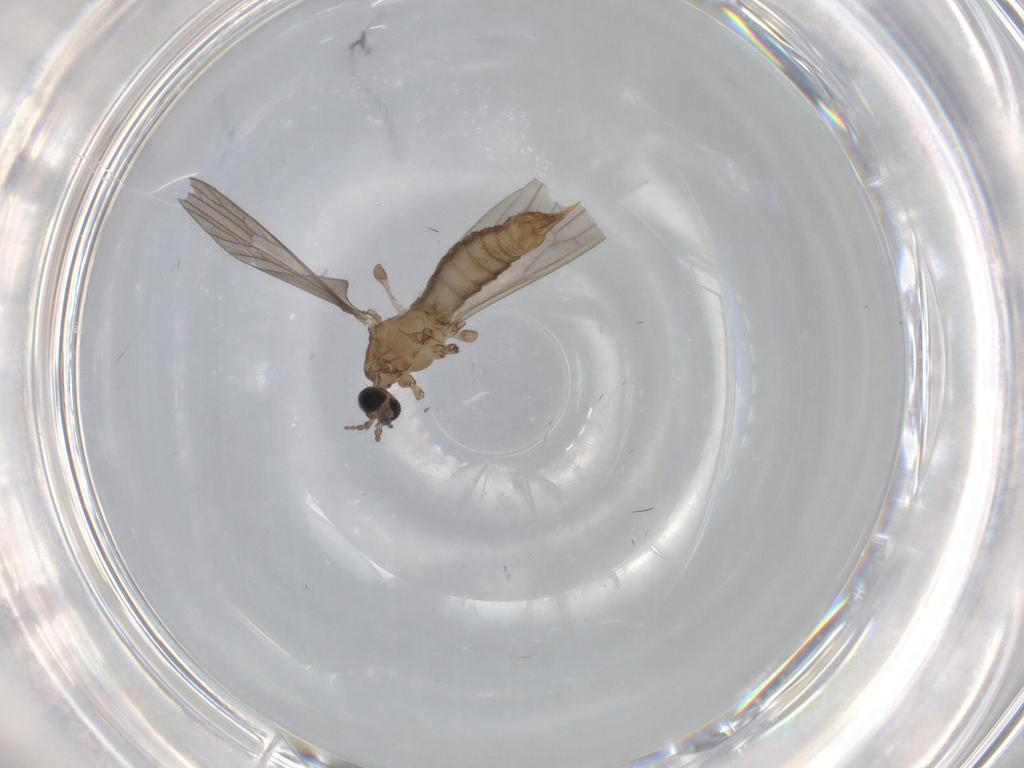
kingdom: Animalia
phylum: Arthropoda
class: Insecta
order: Diptera
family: Limoniidae
